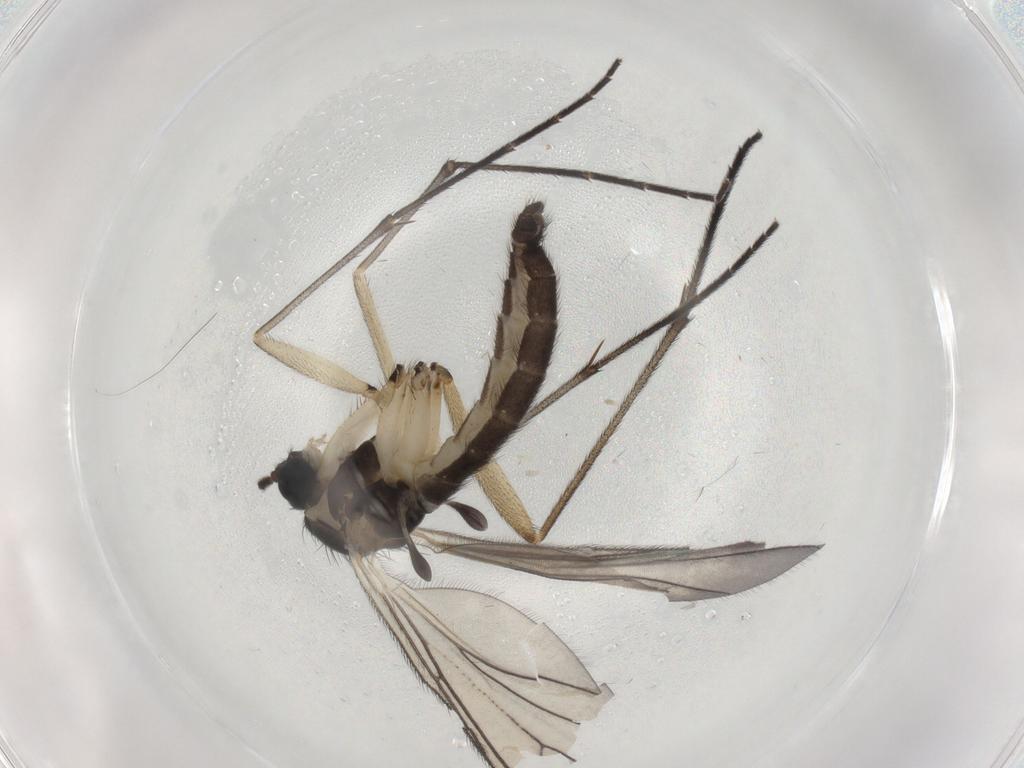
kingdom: Animalia
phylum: Arthropoda
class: Insecta
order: Diptera
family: Sciaridae
